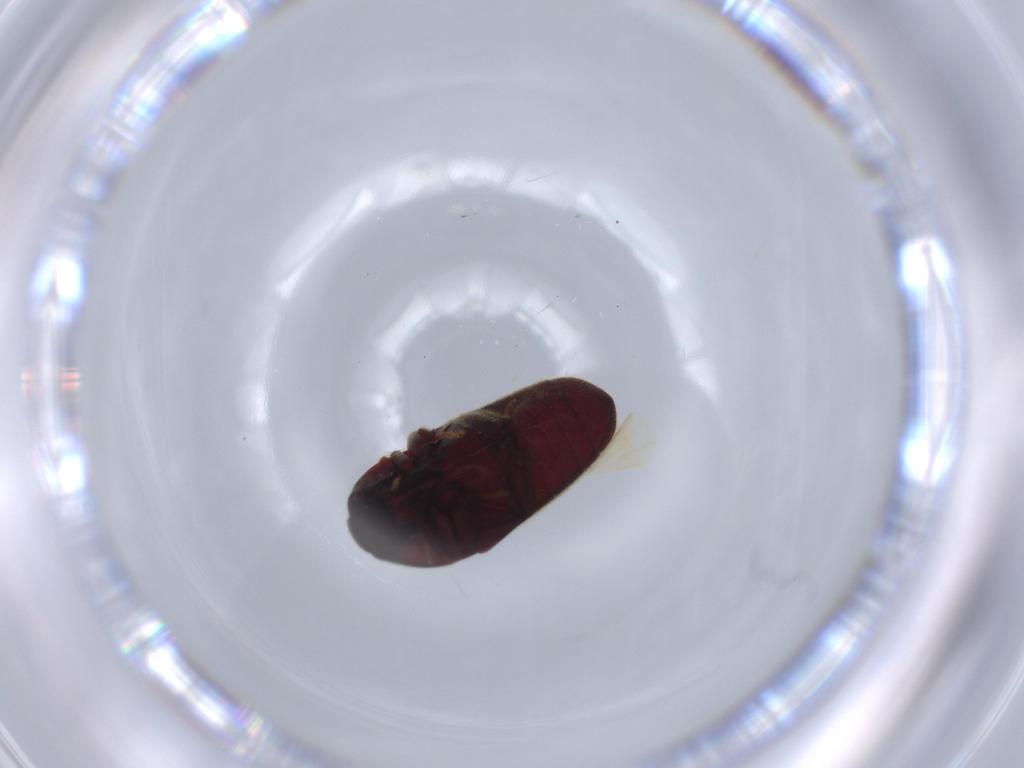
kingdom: Animalia
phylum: Arthropoda
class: Insecta
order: Coleoptera
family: Throscidae
